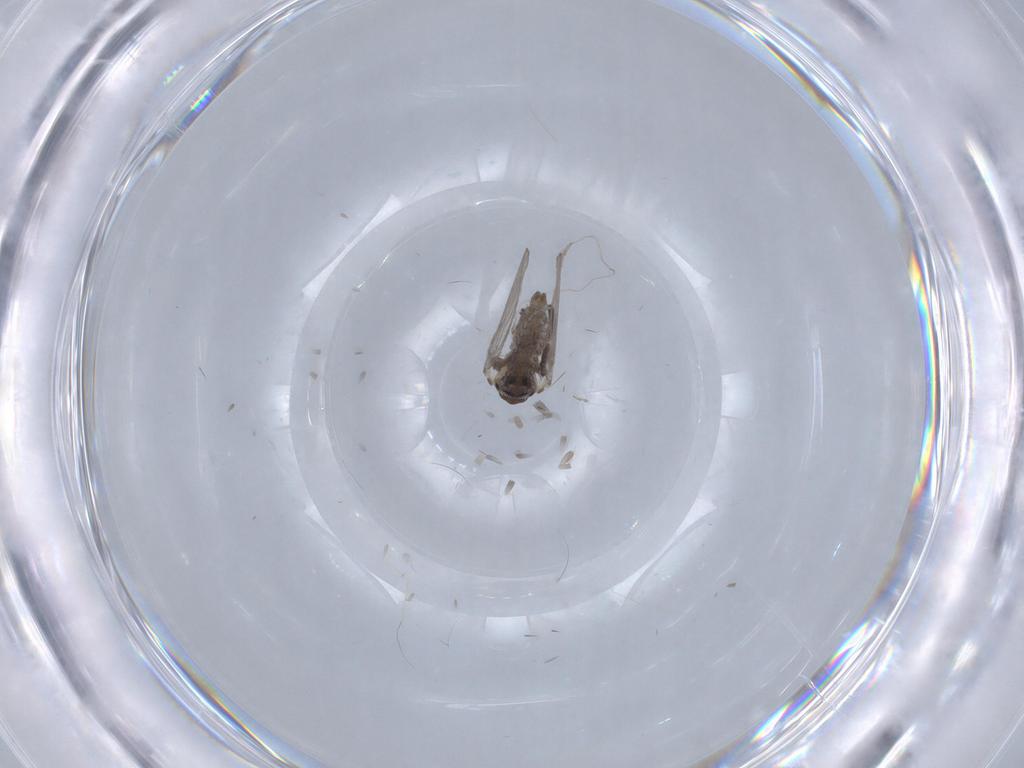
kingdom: Animalia
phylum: Arthropoda
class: Insecta
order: Diptera
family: Psychodidae
